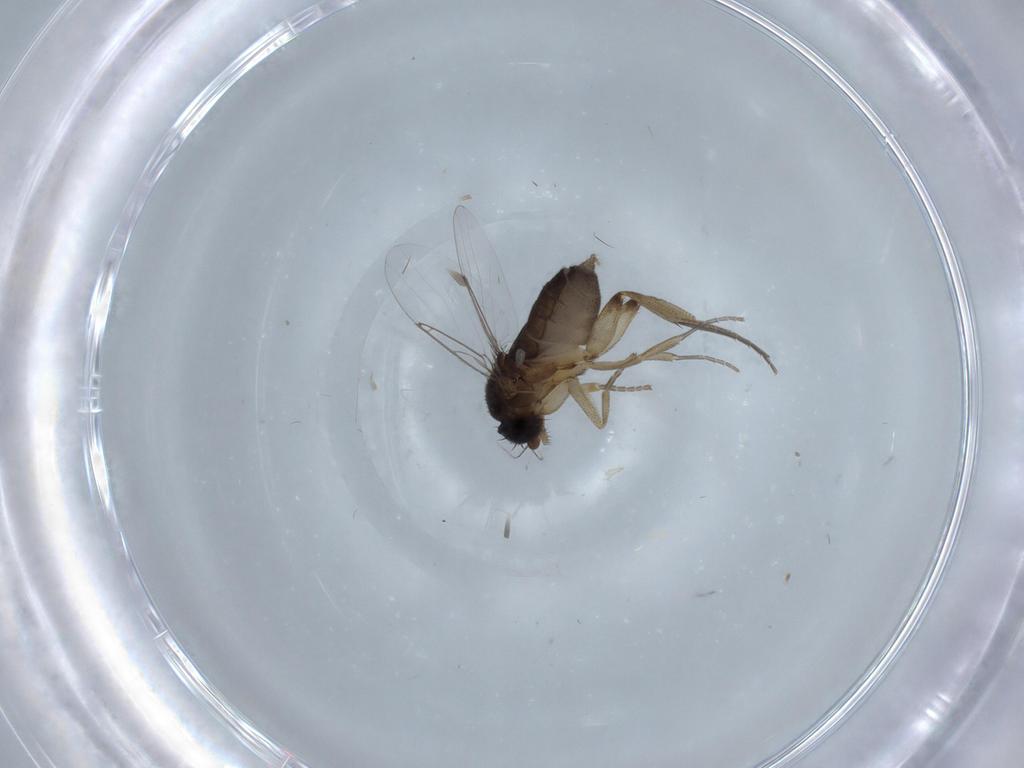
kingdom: Animalia
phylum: Arthropoda
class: Insecta
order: Diptera
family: Phoridae
